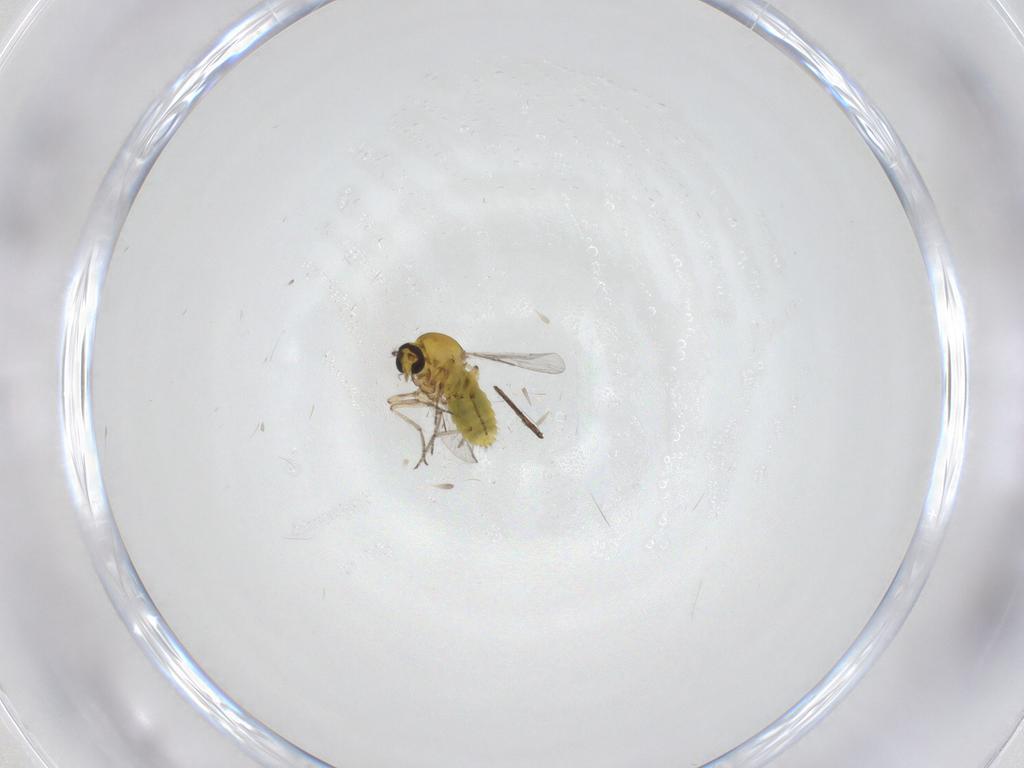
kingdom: Animalia
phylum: Arthropoda
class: Insecta
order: Diptera
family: Ceratopogonidae
